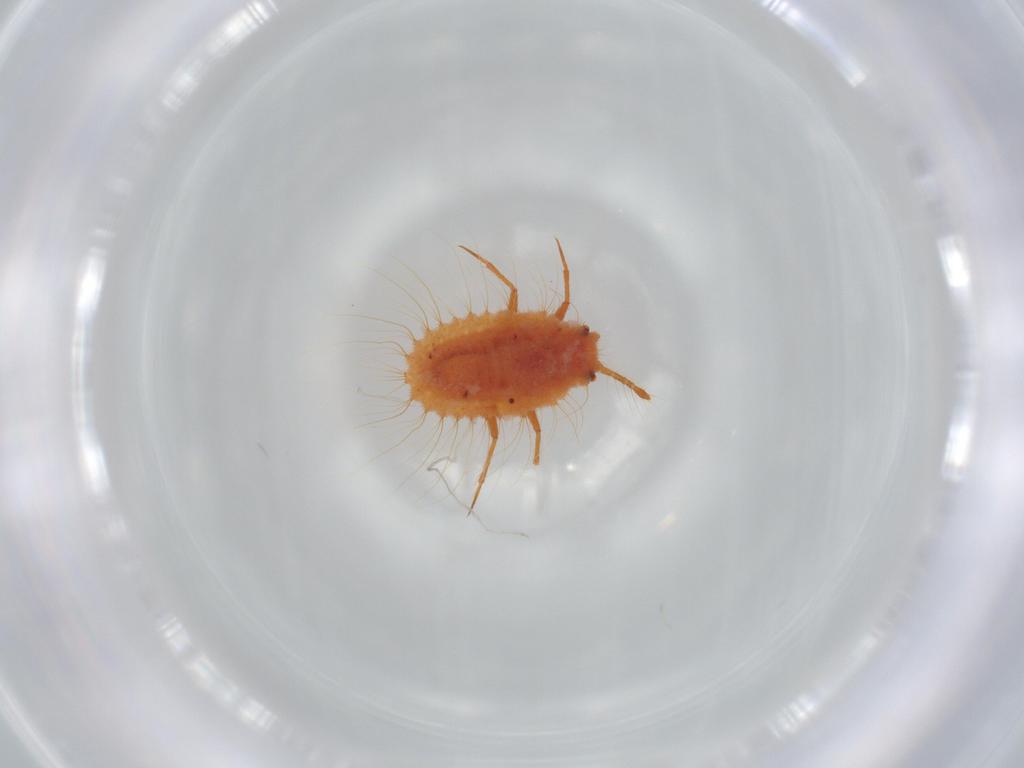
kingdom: Animalia
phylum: Arthropoda
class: Insecta
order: Hemiptera
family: Coccoidea_incertae_sedis
